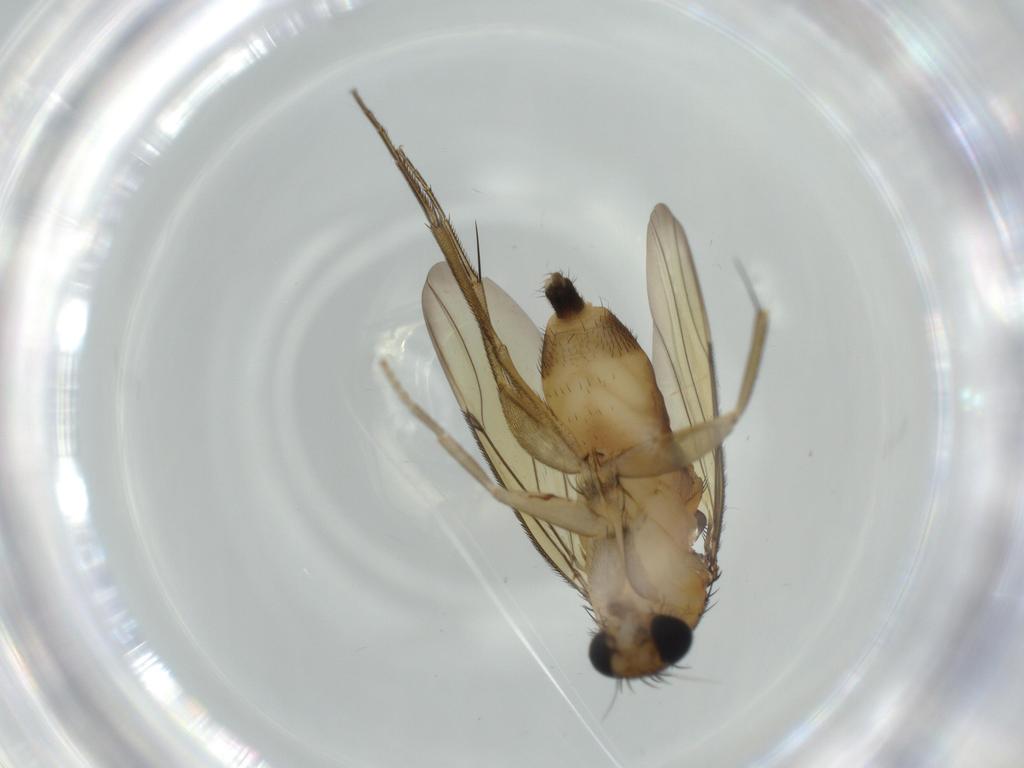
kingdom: Animalia
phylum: Arthropoda
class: Insecta
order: Diptera
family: Phoridae
